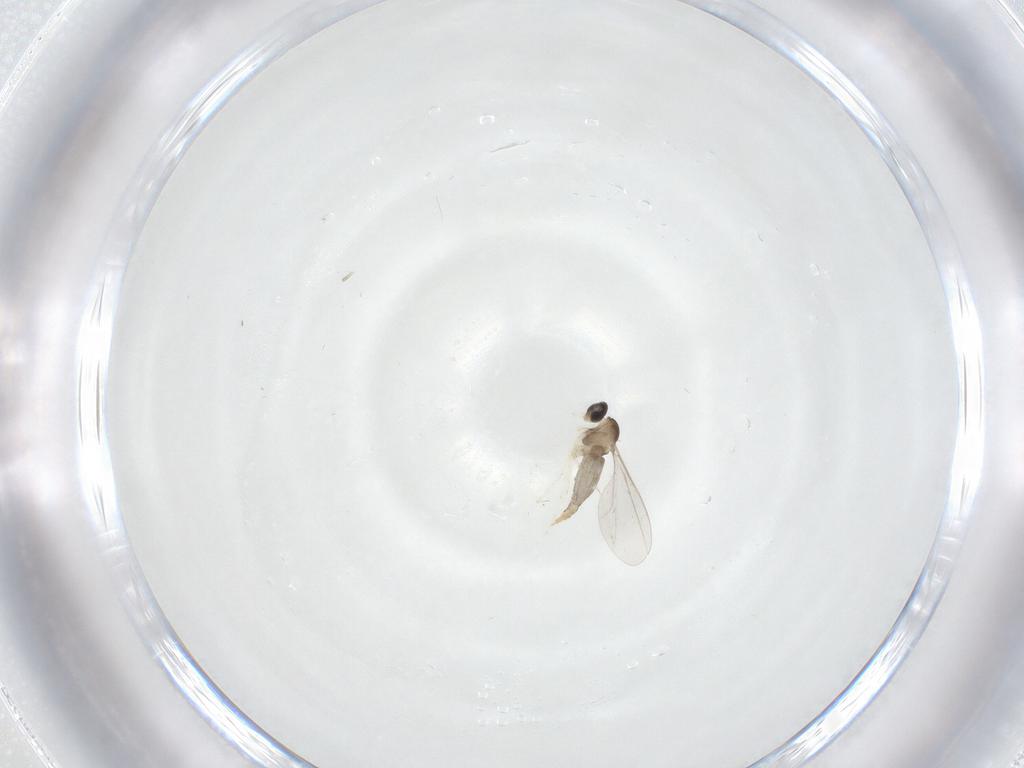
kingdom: Animalia
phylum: Arthropoda
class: Insecta
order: Diptera
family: Cecidomyiidae
